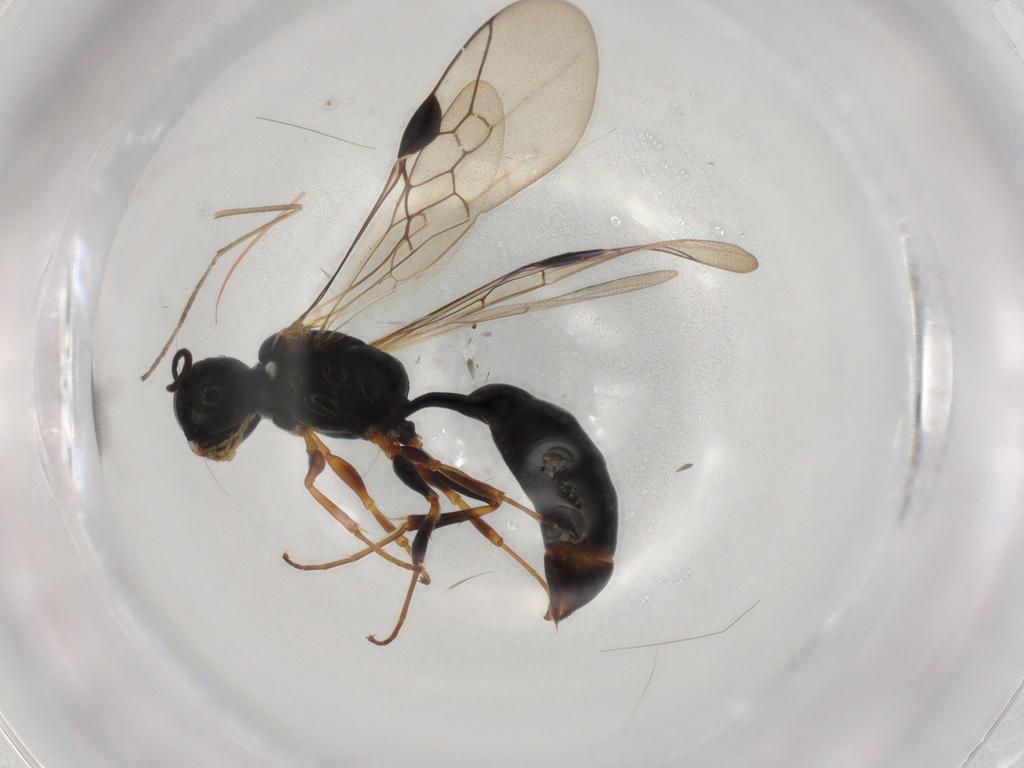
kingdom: Animalia
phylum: Arthropoda
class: Insecta
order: Hymenoptera
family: Pemphredonidae
